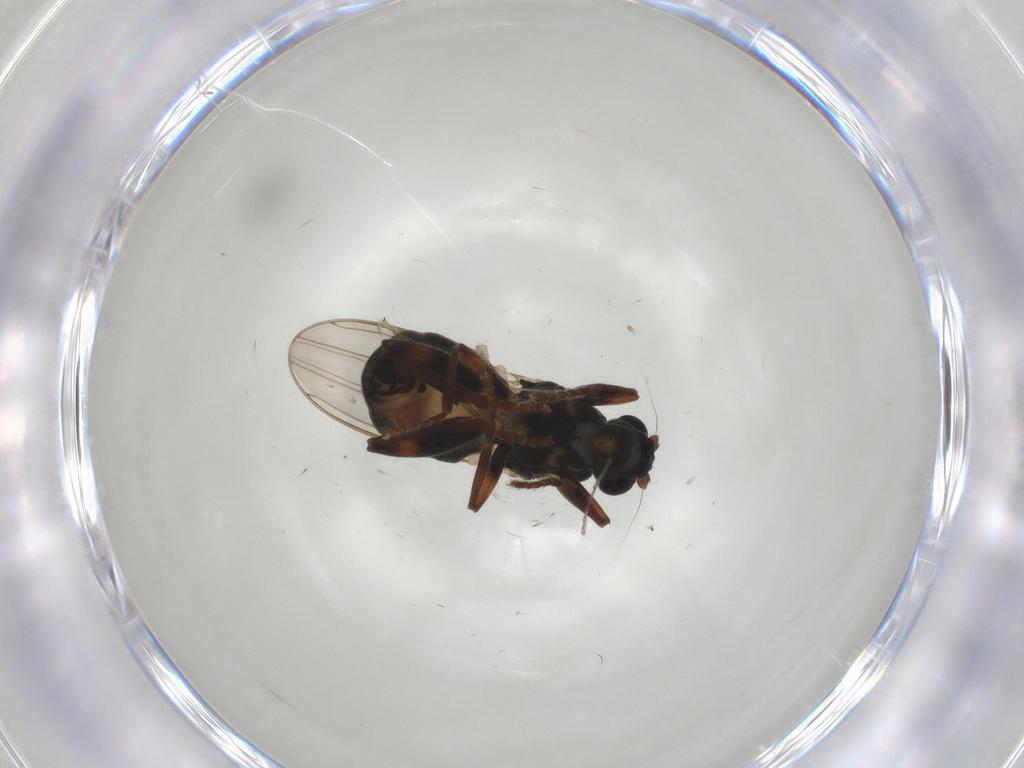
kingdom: Animalia
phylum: Arthropoda
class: Insecta
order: Diptera
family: Sphaeroceridae
